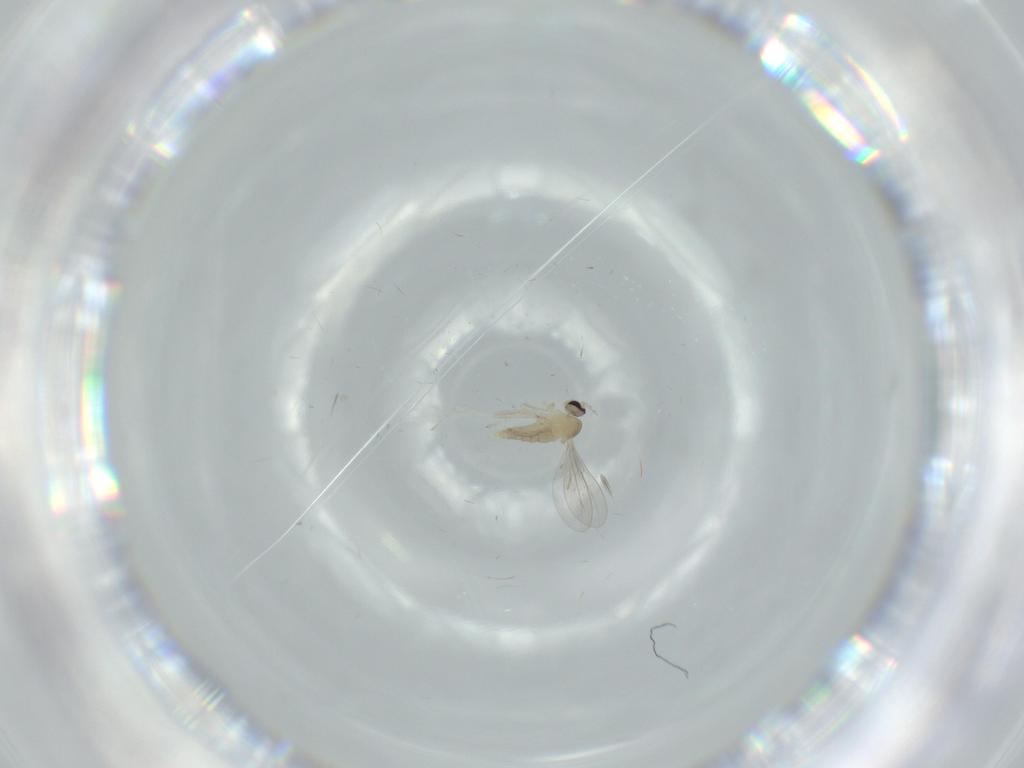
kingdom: Animalia
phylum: Arthropoda
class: Insecta
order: Diptera
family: Cecidomyiidae
